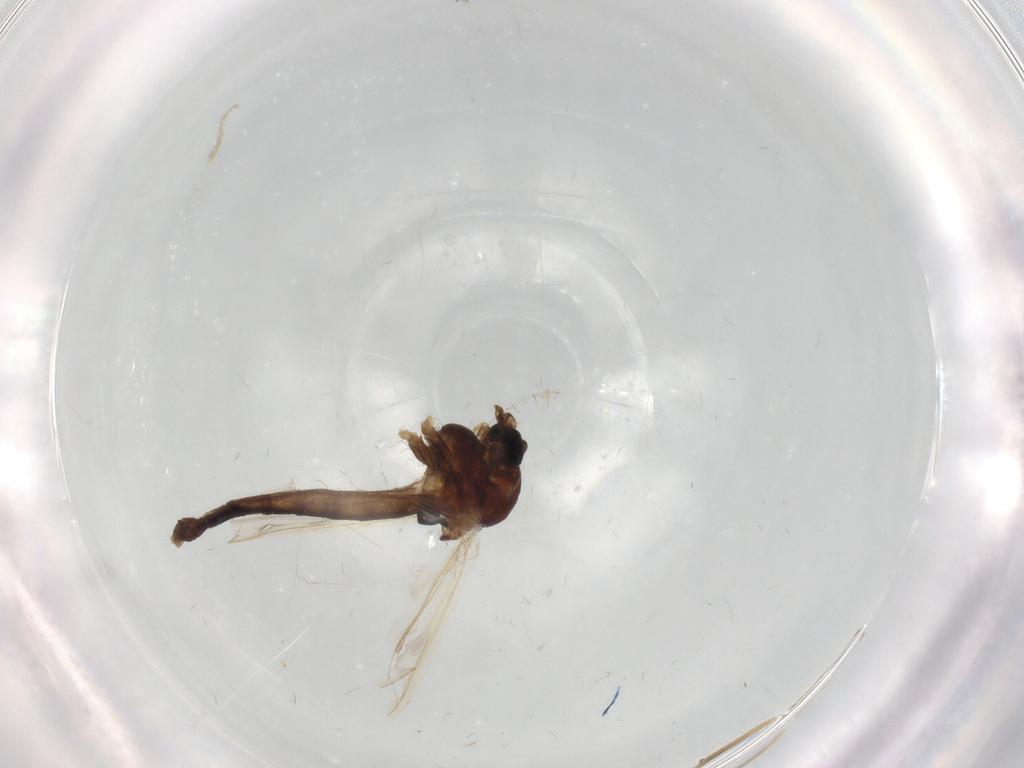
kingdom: Animalia
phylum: Arthropoda
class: Insecta
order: Diptera
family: Chironomidae
